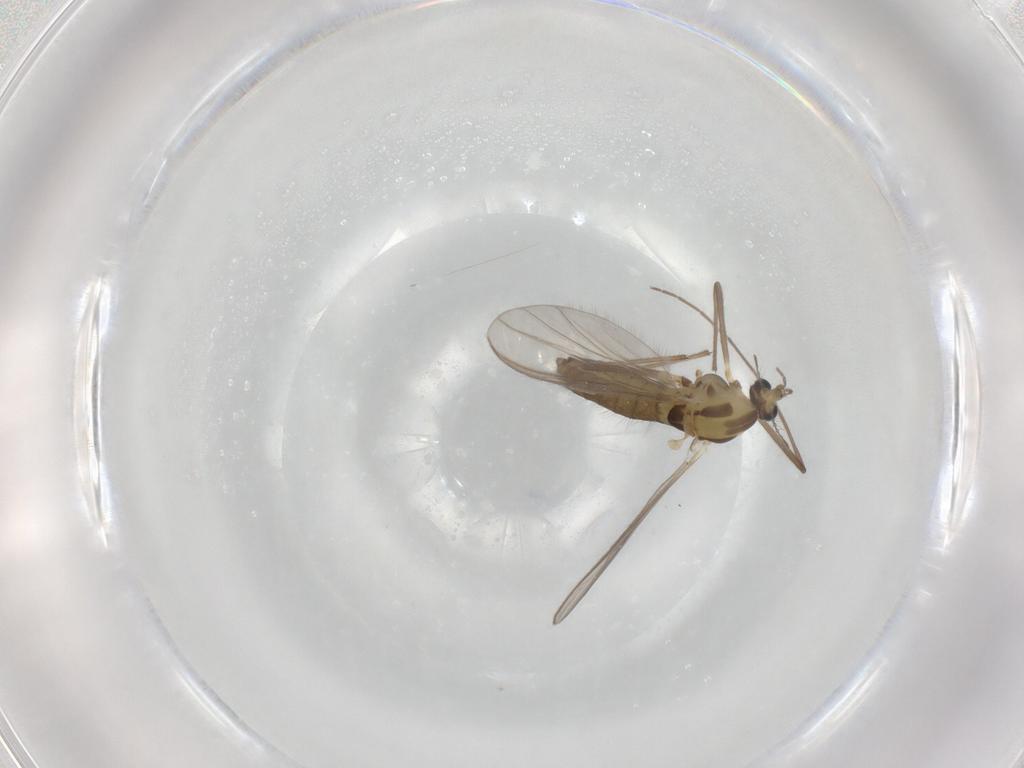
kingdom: Animalia
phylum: Arthropoda
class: Insecta
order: Diptera
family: Chironomidae
